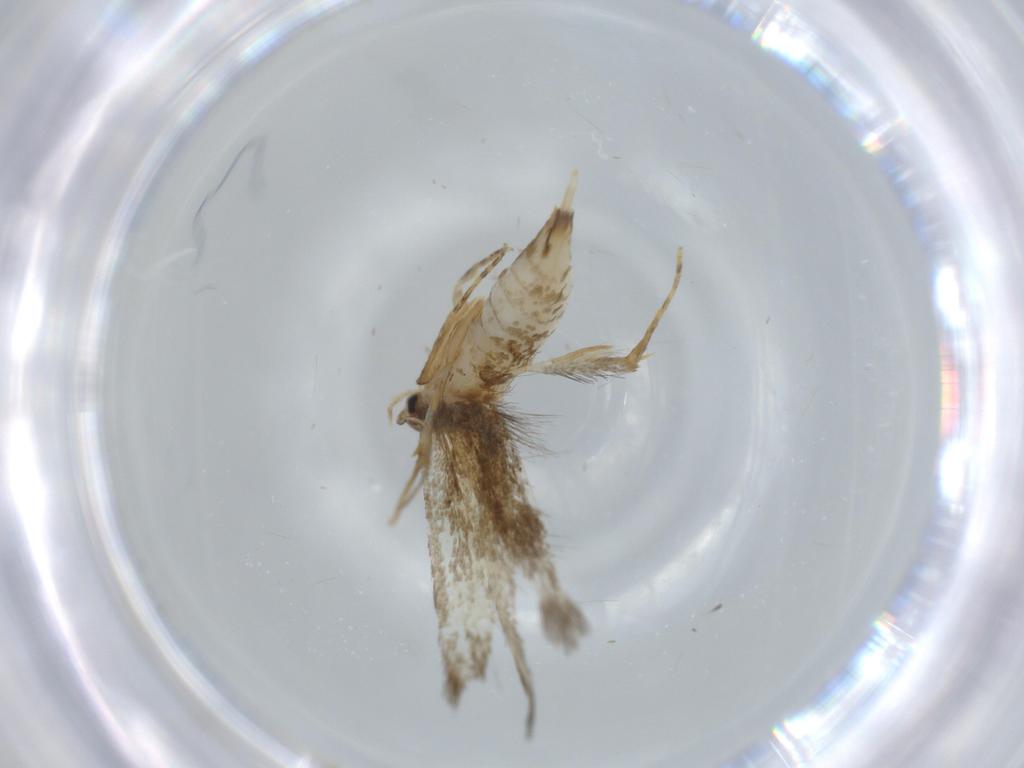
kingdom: Animalia
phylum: Arthropoda
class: Insecta
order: Lepidoptera
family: Tineidae
